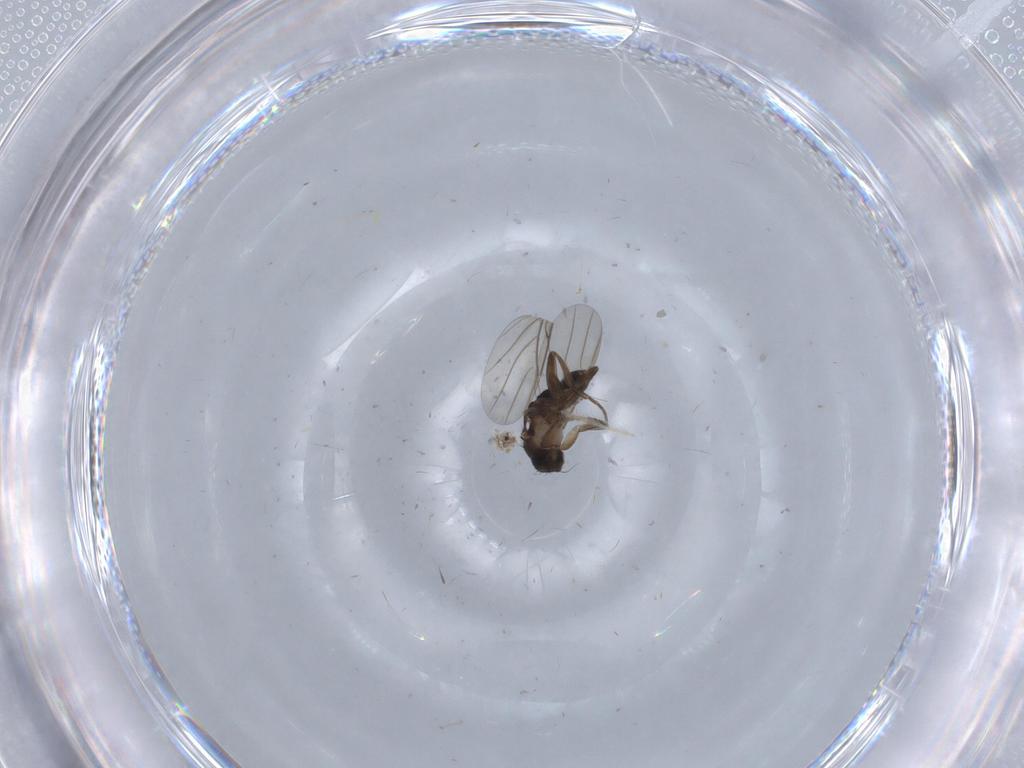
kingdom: Animalia
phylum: Arthropoda
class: Insecta
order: Diptera
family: Phoridae
